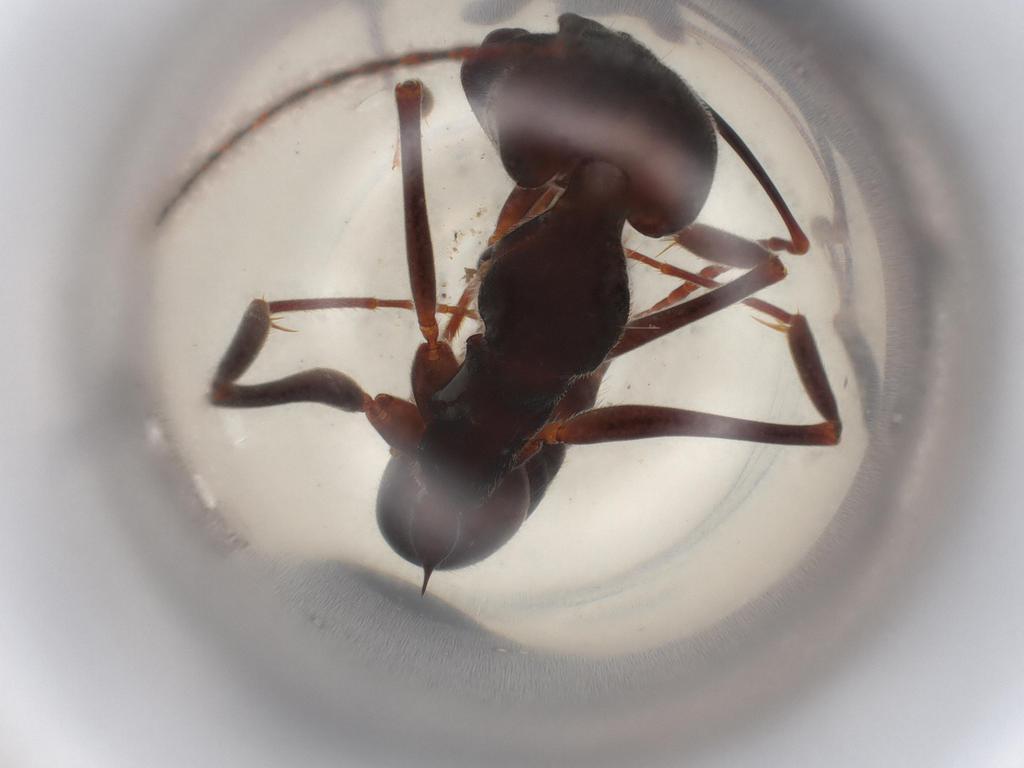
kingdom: Animalia
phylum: Arthropoda
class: Insecta
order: Hymenoptera
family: Formicidae
